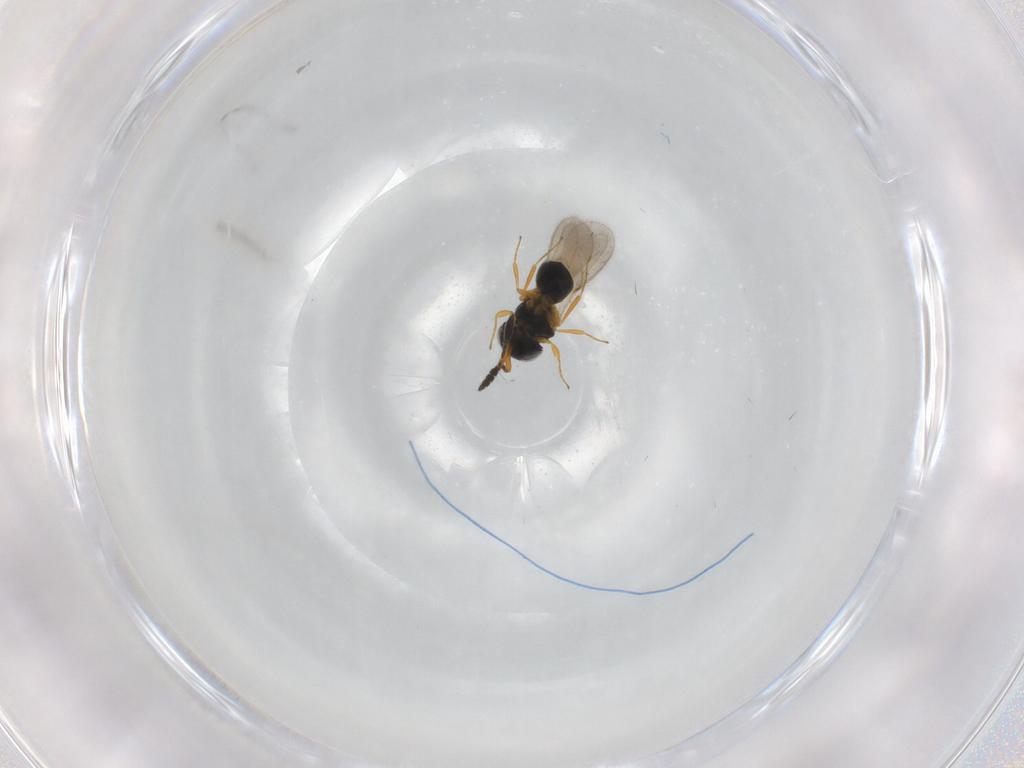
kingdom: Animalia
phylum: Arthropoda
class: Insecta
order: Hymenoptera
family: Scelionidae
